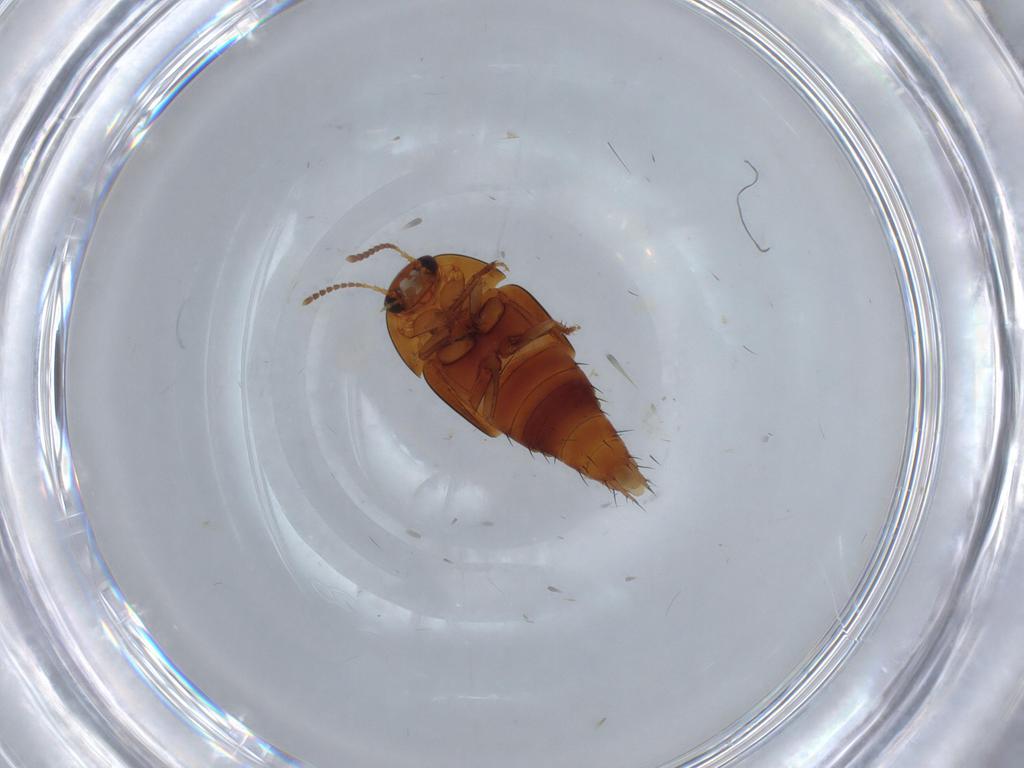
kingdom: Animalia
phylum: Arthropoda
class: Insecta
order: Coleoptera
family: Staphylinidae
